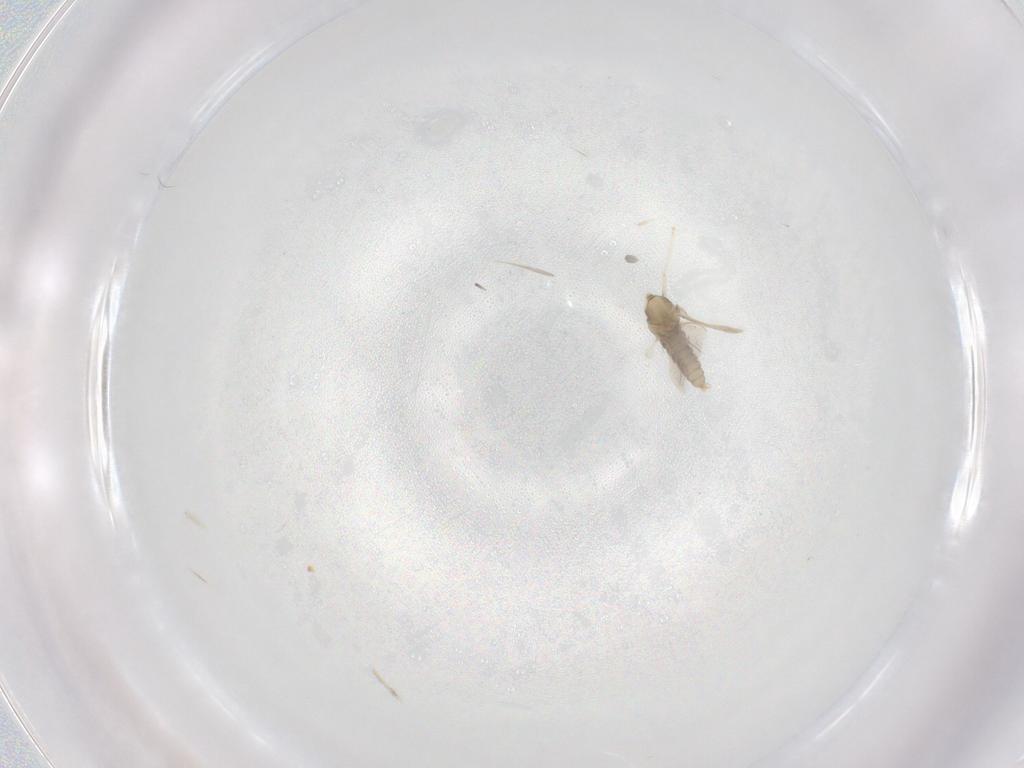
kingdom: Animalia
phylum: Arthropoda
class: Insecta
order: Diptera
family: Cecidomyiidae
